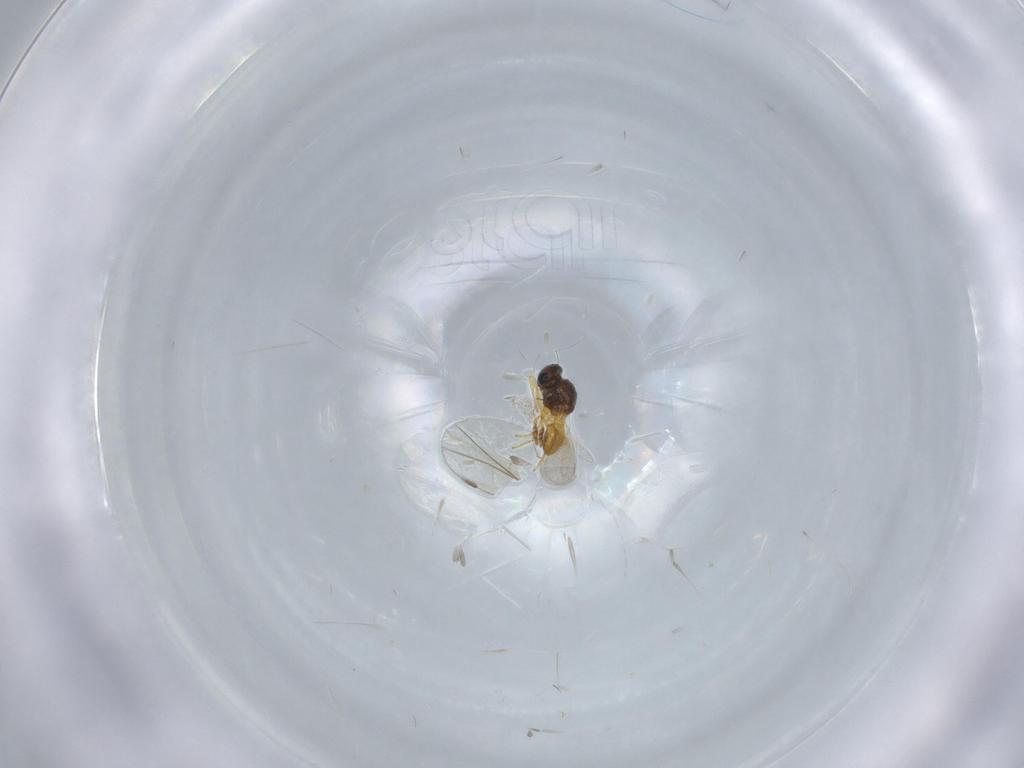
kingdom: Animalia
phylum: Arthropoda
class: Insecta
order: Hymenoptera
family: Platygastridae
